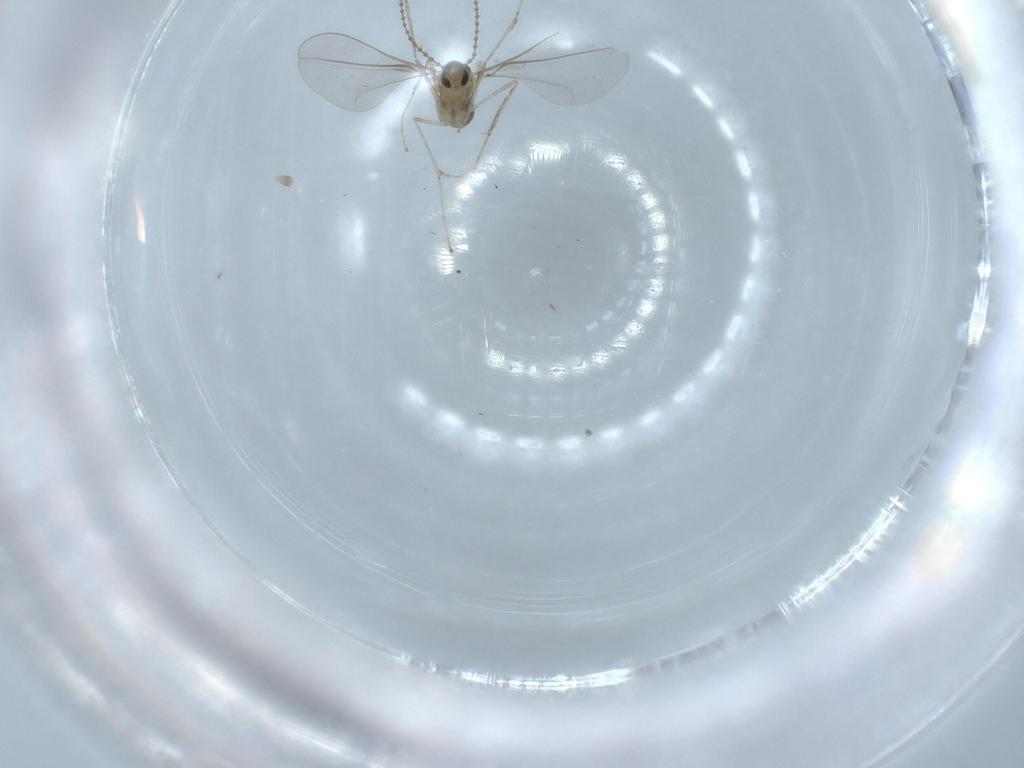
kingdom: Animalia
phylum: Arthropoda
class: Insecta
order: Diptera
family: Cecidomyiidae
